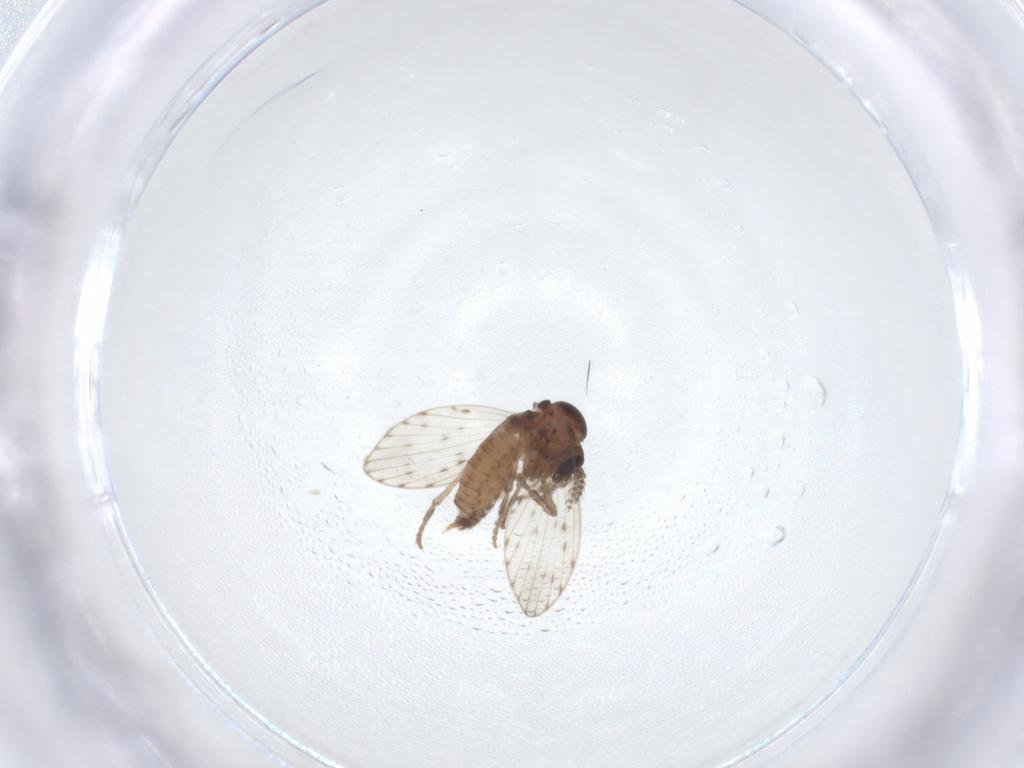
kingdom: Animalia
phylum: Arthropoda
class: Insecta
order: Diptera
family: Psychodidae
